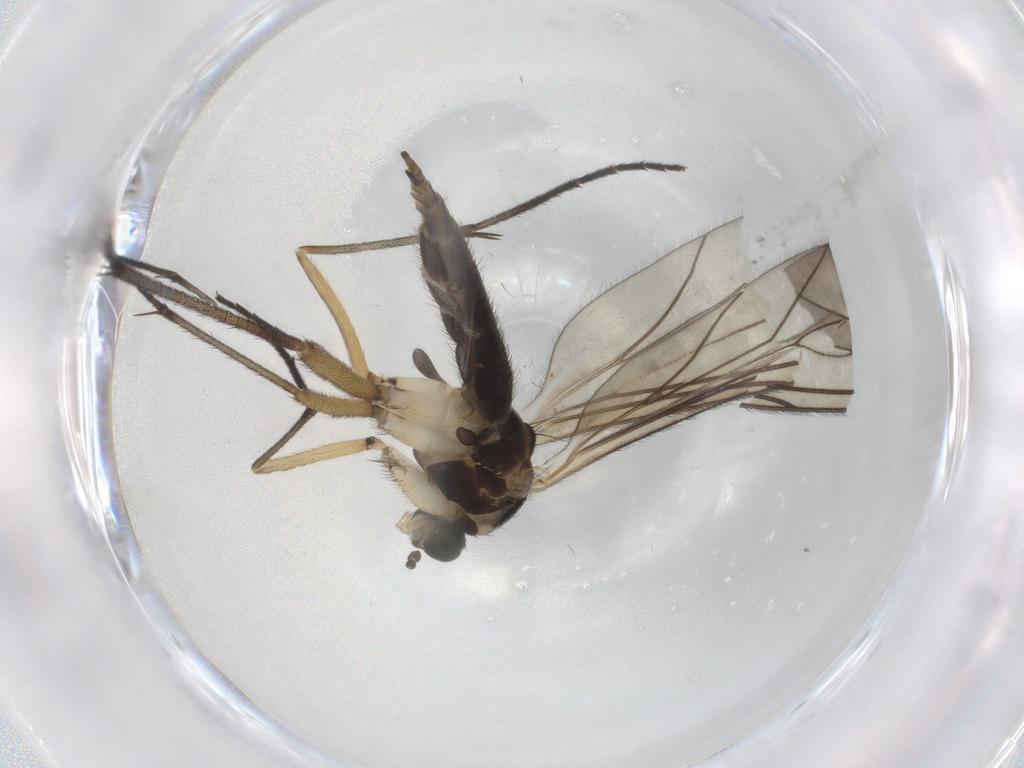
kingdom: Animalia
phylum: Arthropoda
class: Insecta
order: Diptera
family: Sciaridae
